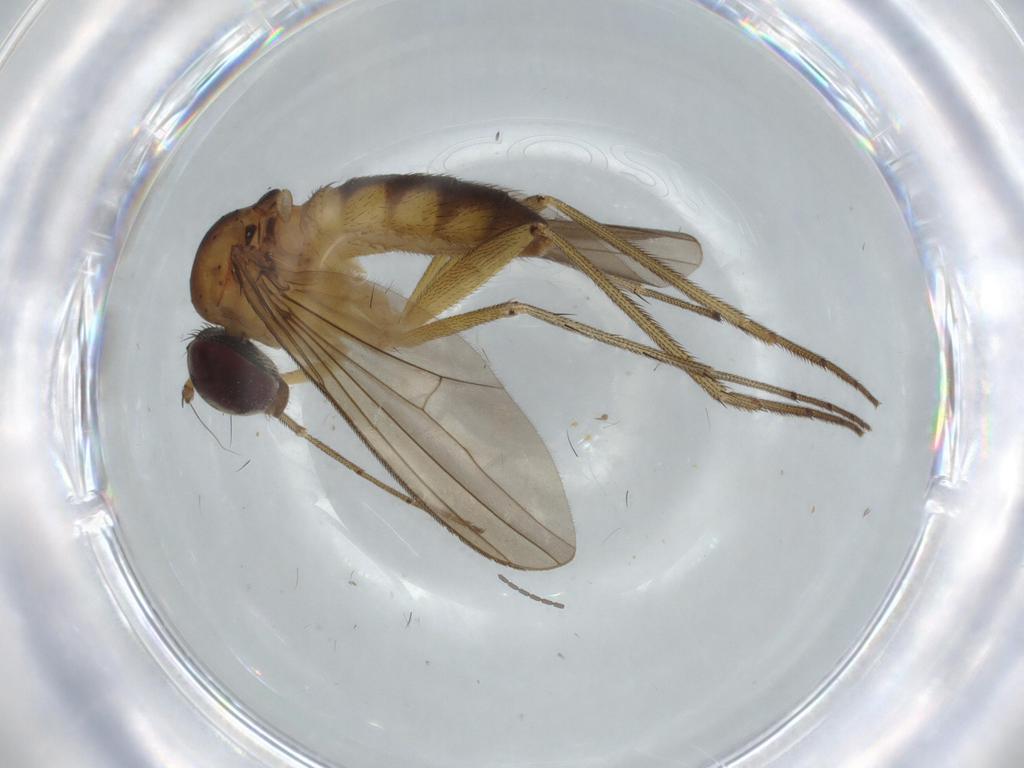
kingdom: Animalia
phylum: Arthropoda
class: Insecta
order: Diptera
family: Dolichopodidae
